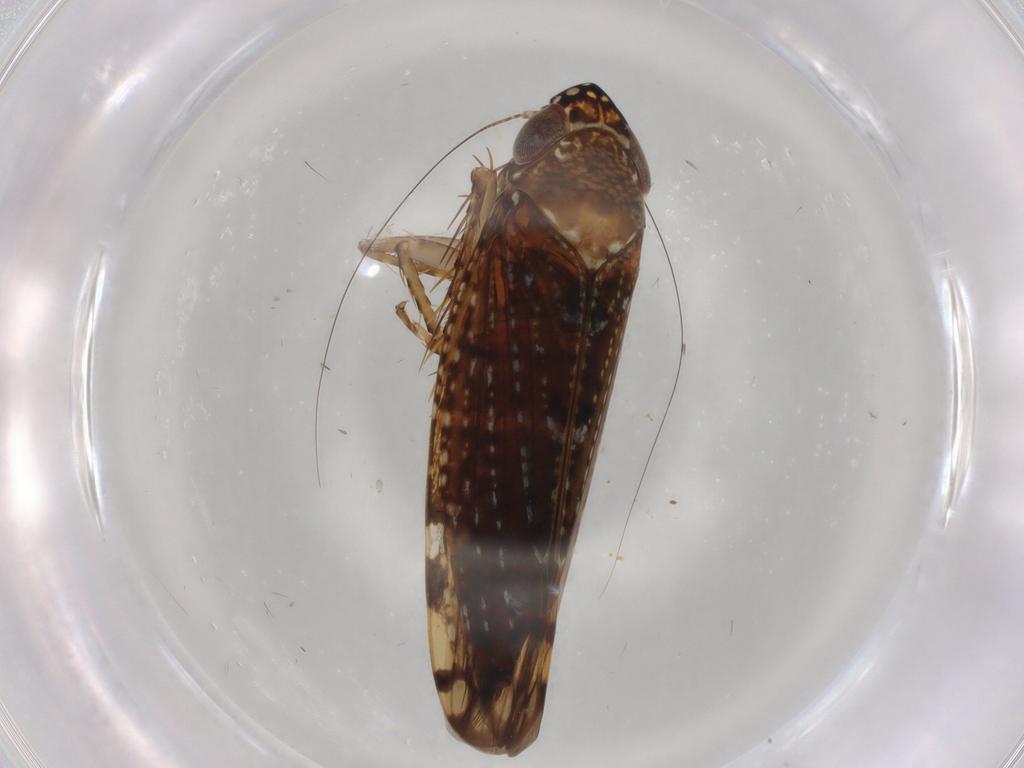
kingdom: Animalia
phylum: Arthropoda
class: Insecta
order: Hemiptera
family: Cicadellidae
